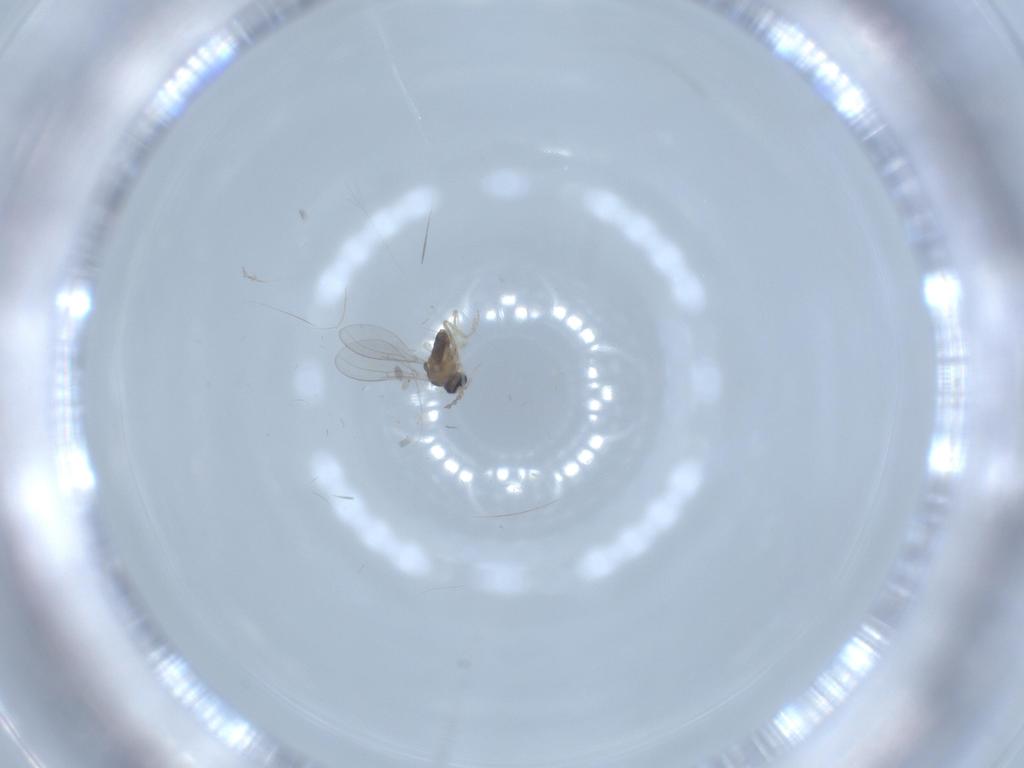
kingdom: Animalia
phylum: Arthropoda
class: Insecta
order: Diptera
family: Cecidomyiidae
